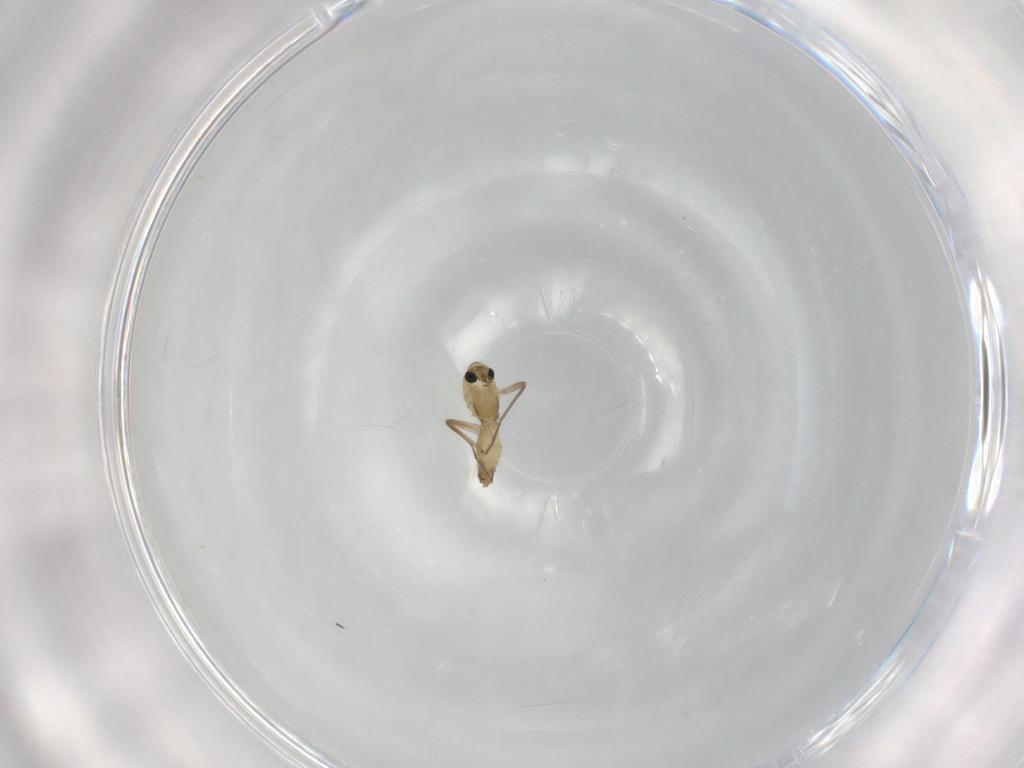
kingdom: Animalia
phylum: Arthropoda
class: Insecta
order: Diptera
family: Chironomidae
